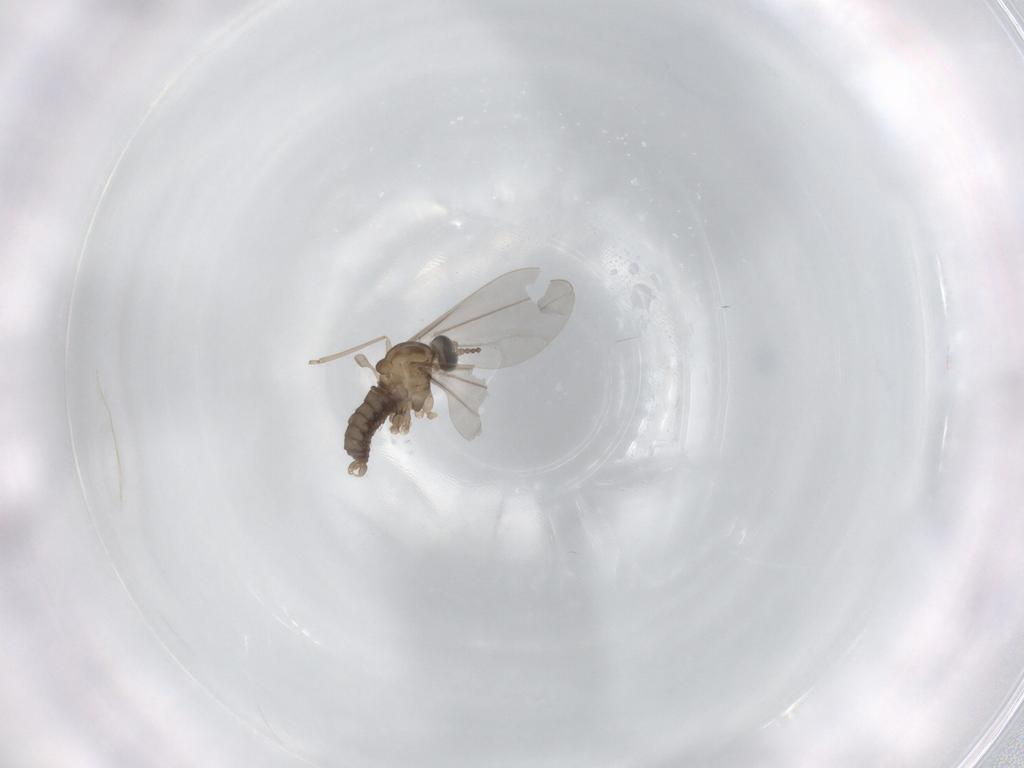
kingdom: Animalia
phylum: Arthropoda
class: Insecta
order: Diptera
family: Cecidomyiidae
